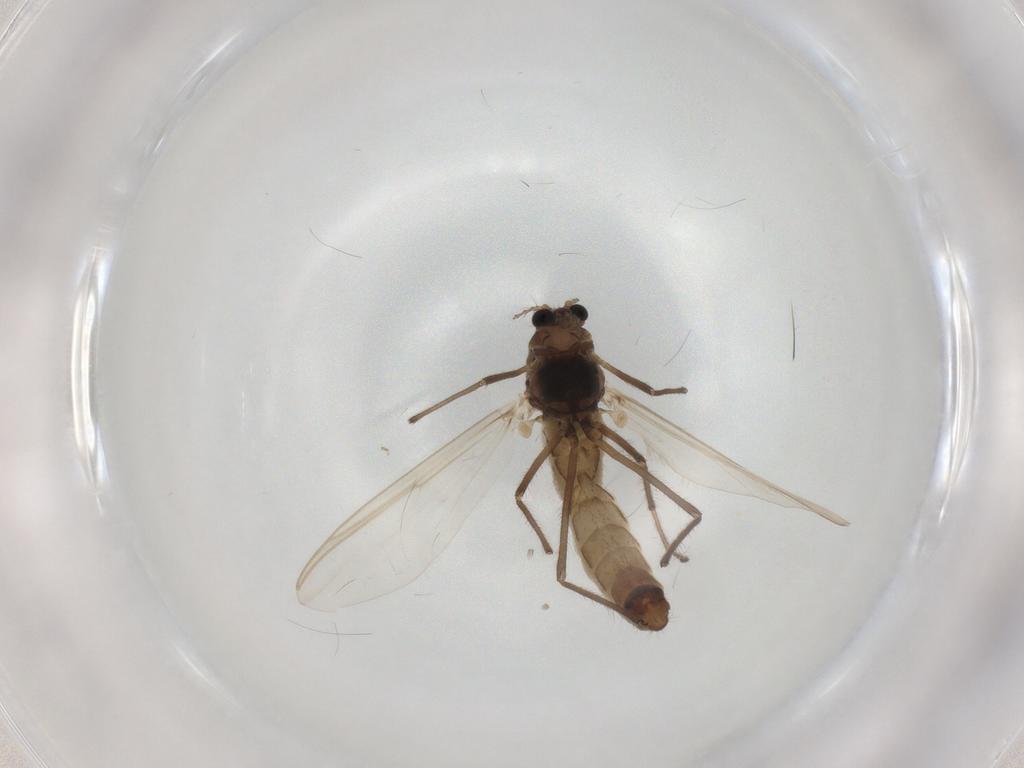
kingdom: Animalia
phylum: Arthropoda
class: Insecta
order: Diptera
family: Chironomidae
